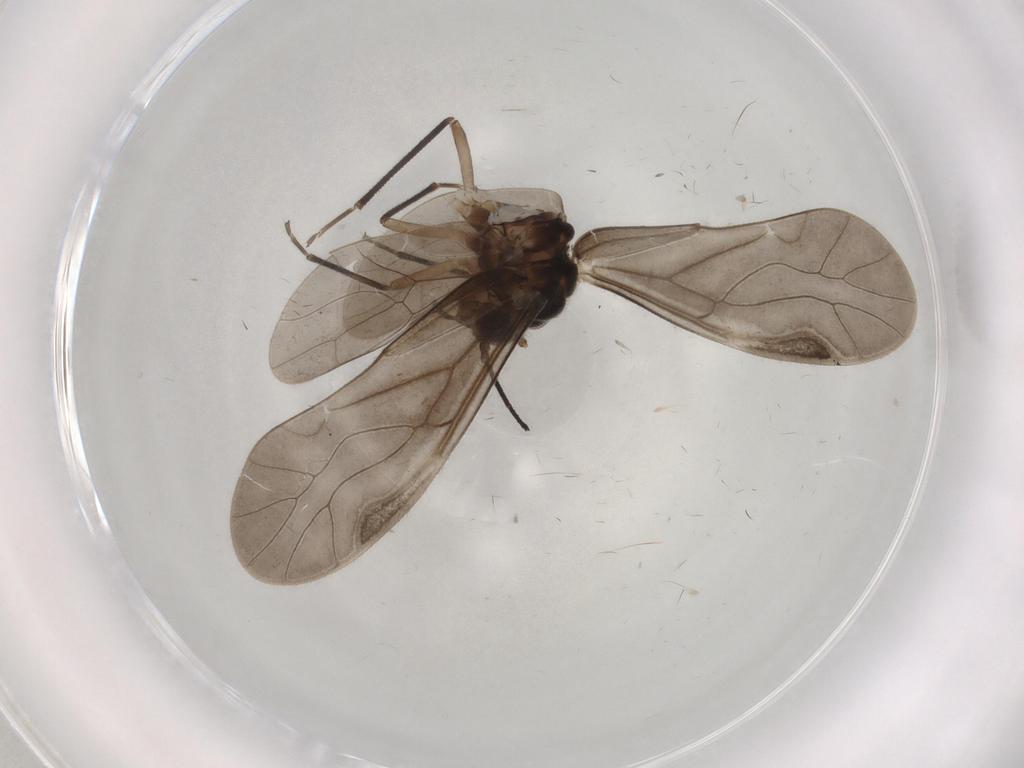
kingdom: Animalia
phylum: Arthropoda
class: Insecta
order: Psocodea
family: Caeciliusidae
